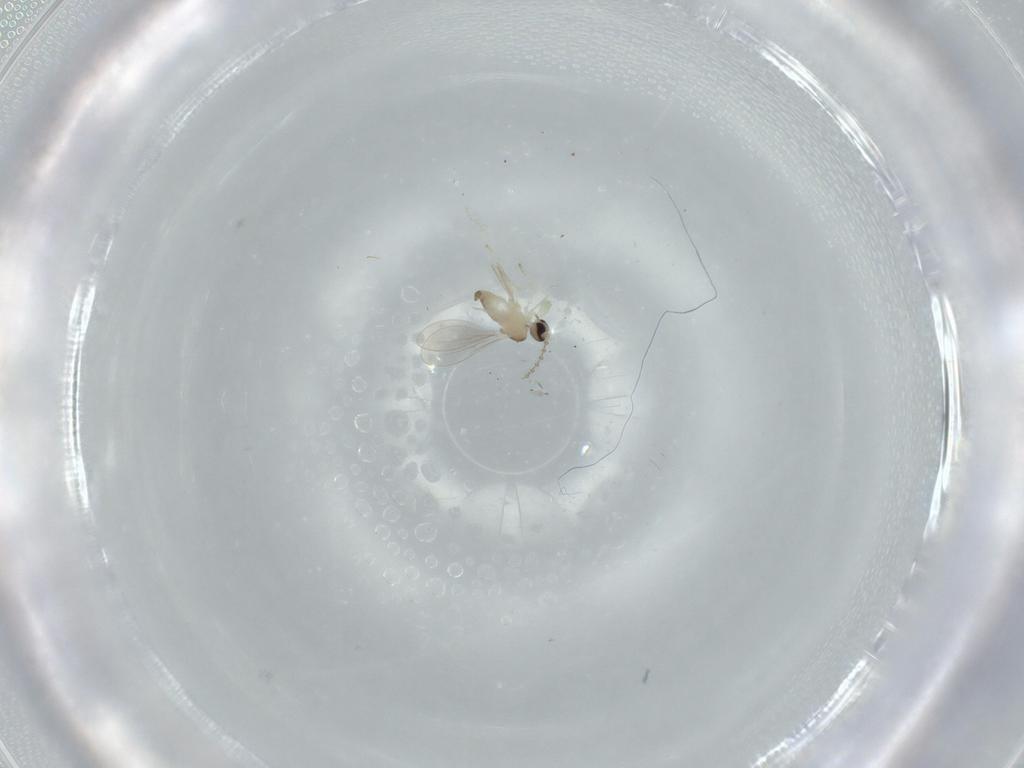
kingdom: Animalia
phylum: Arthropoda
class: Insecta
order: Diptera
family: Cecidomyiidae
